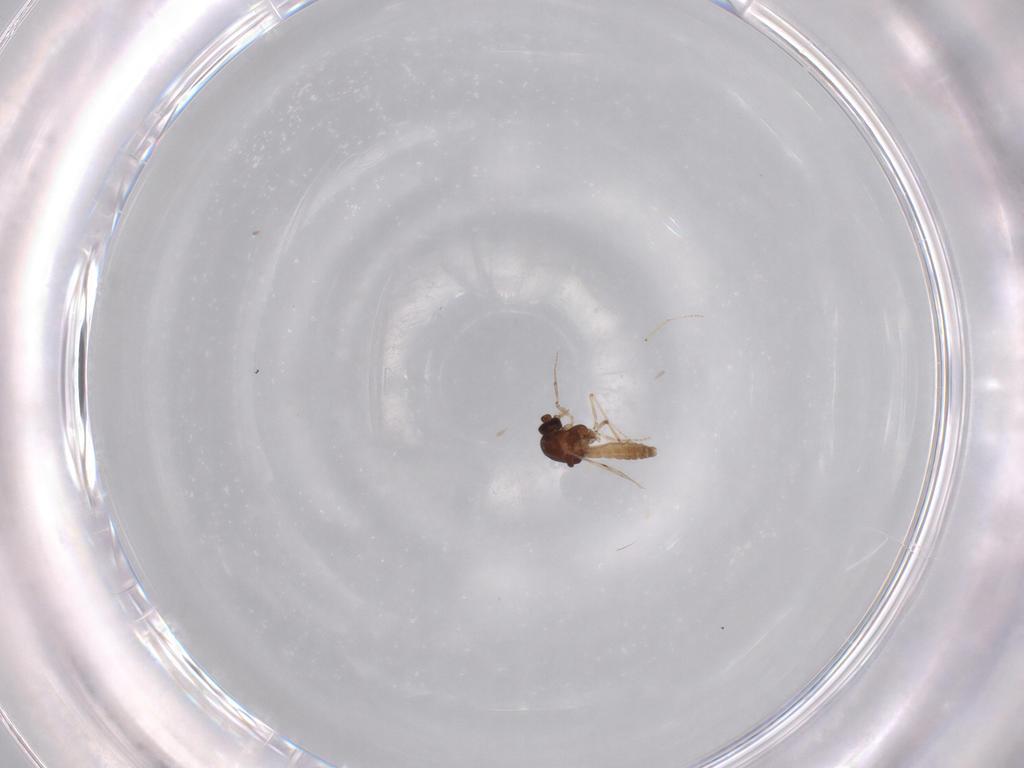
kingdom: Animalia
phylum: Arthropoda
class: Insecta
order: Diptera
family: Ceratopogonidae
